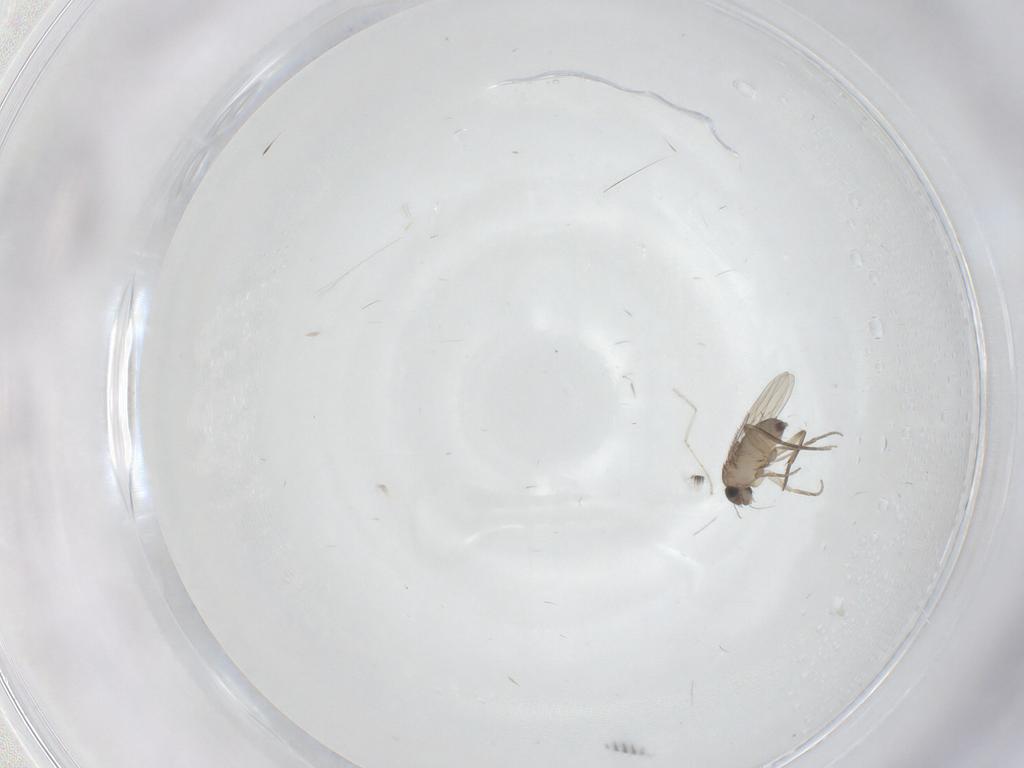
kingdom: Animalia
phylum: Arthropoda
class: Insecta
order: Diptera
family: Phoridae
